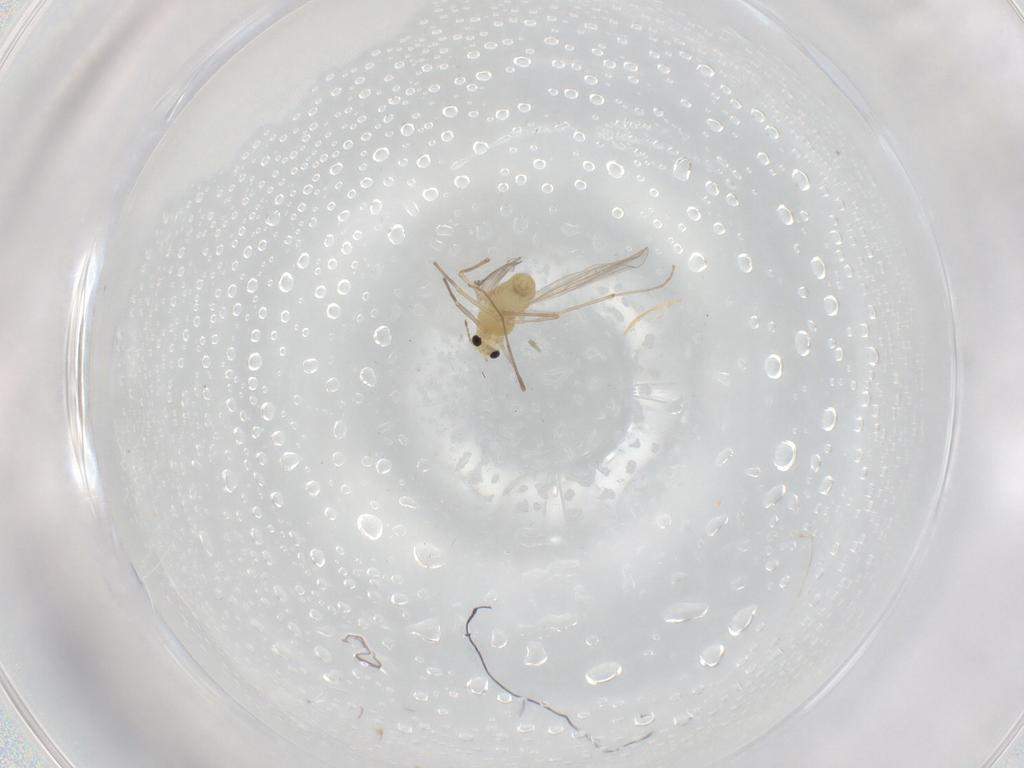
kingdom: Animalia
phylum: Arthropoda
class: Insecta
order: Diptera
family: Chironomidae
